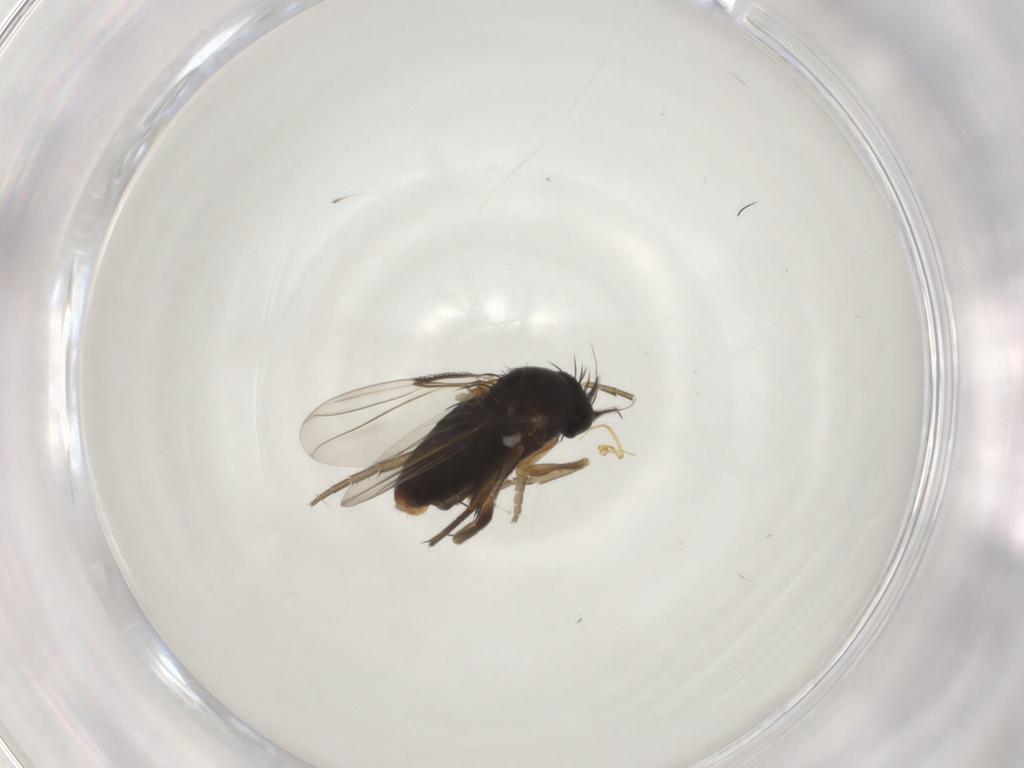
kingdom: Animalia
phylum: Arthropoda
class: Insecta
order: Diptera
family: Phoridae
